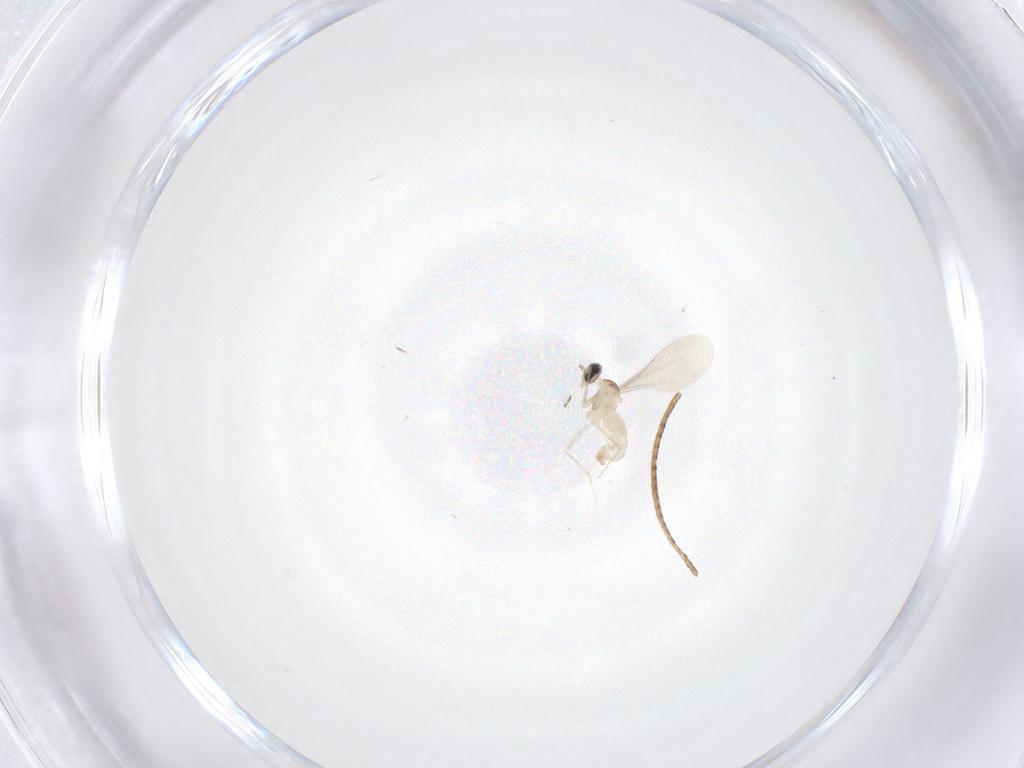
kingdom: Animalia
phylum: Arthropoda
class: Insecta
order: Diptera
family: Cecidomyiidae
